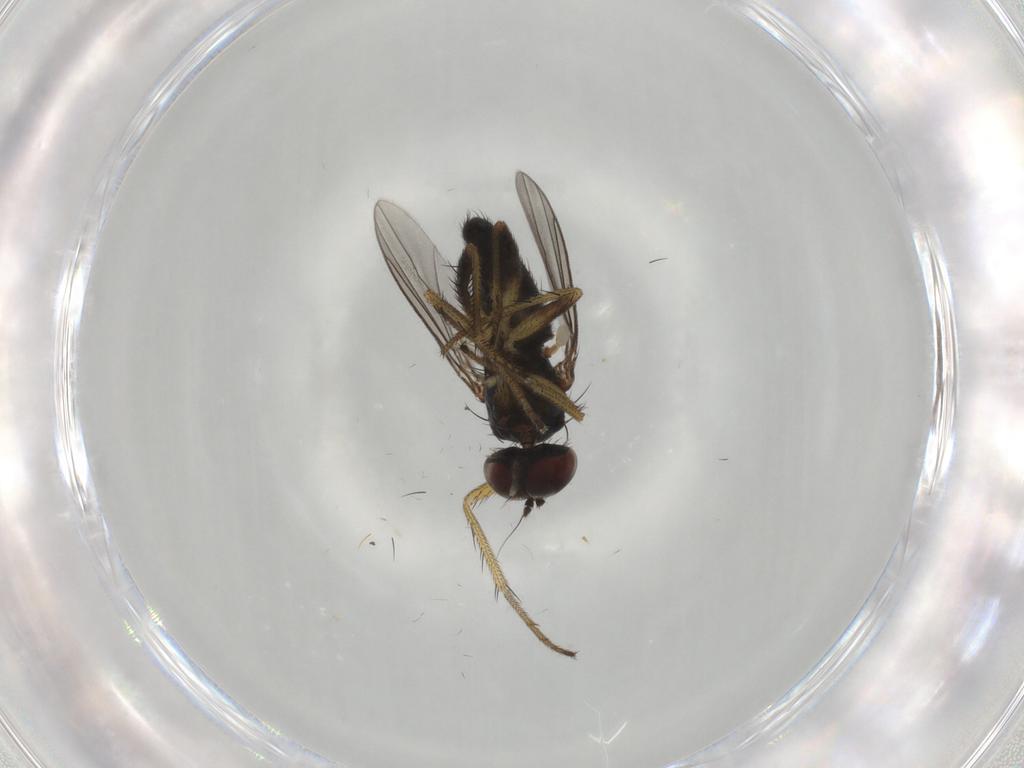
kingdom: Animalia
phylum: Arthropoda
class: Insecta
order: Diptera
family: Dolichopodidae
